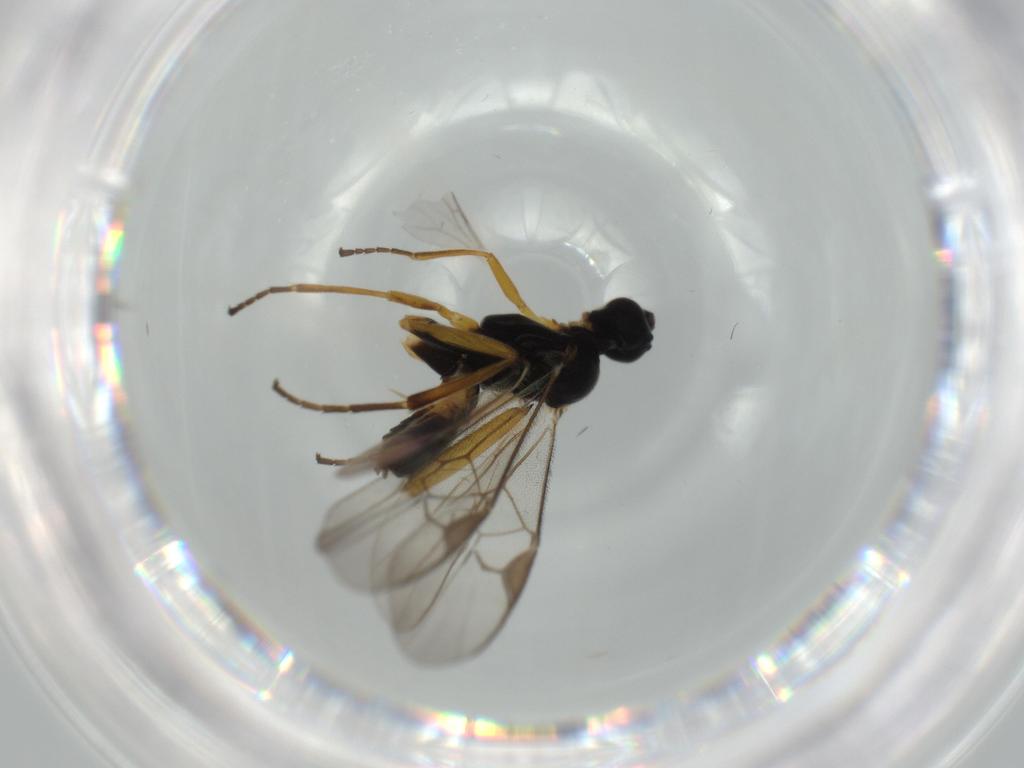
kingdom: Animalia
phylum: Arthropoda
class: Insecta
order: Hymenoptera
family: Braconidae
